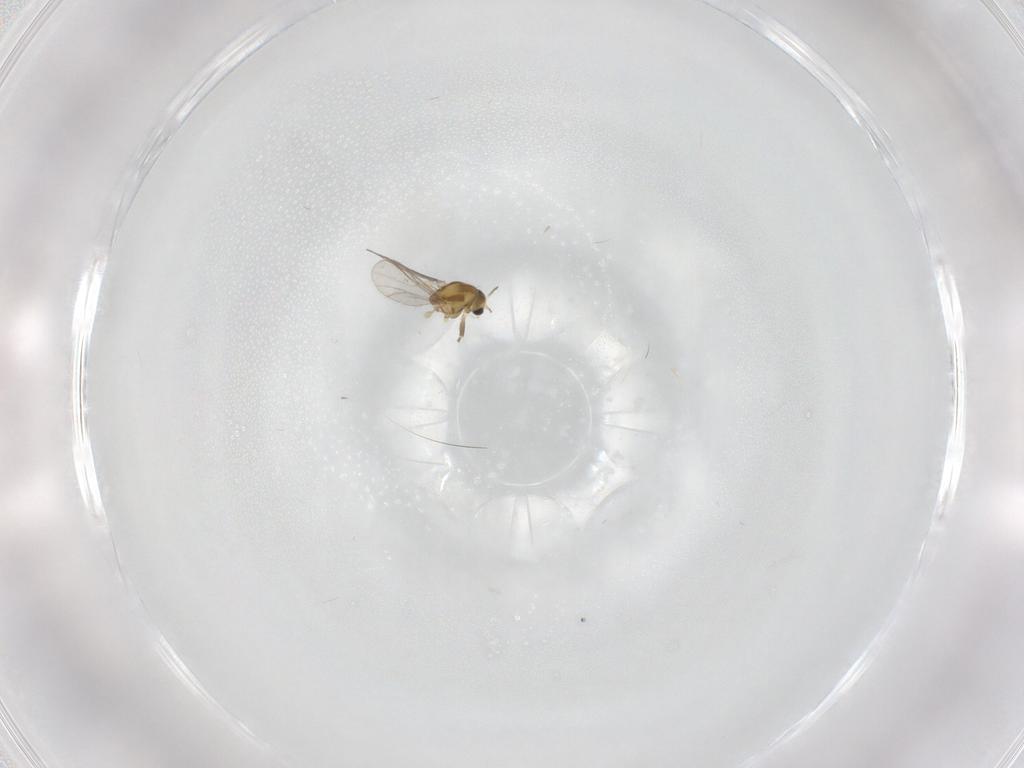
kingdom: Animalia
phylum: Arthropoda
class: Insecta
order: Diptera
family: Chironomidae
